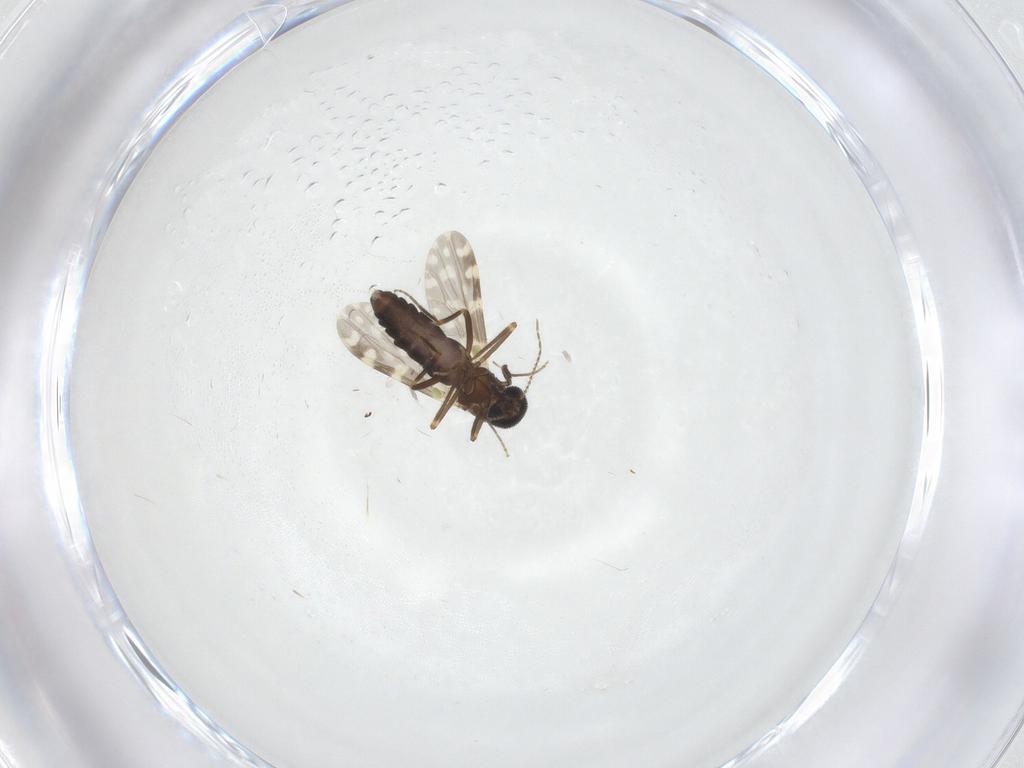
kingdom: Animalia
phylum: Arthropoda
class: Insecta
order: Diptera
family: Ceratopogonidae
